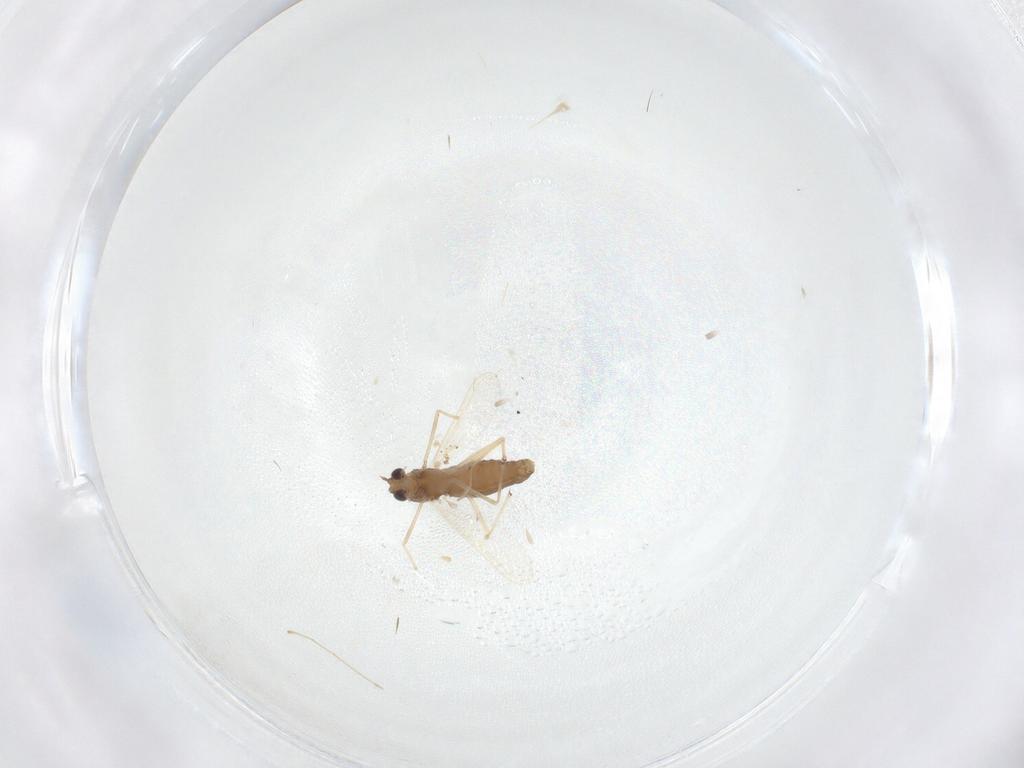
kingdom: Animalia
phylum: Arthropoda
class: Insecta
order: Diptera
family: Chironomidae
